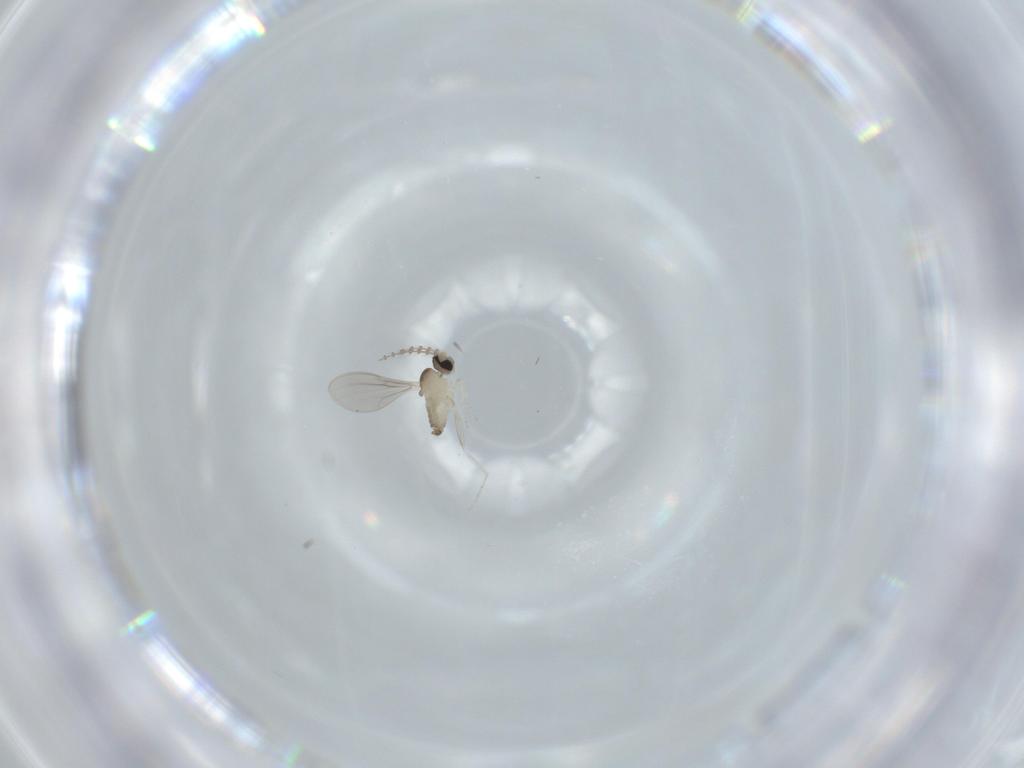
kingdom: Animalia
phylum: Arthropoda
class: Insecta
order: Diptera
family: Cecidomyiidae
